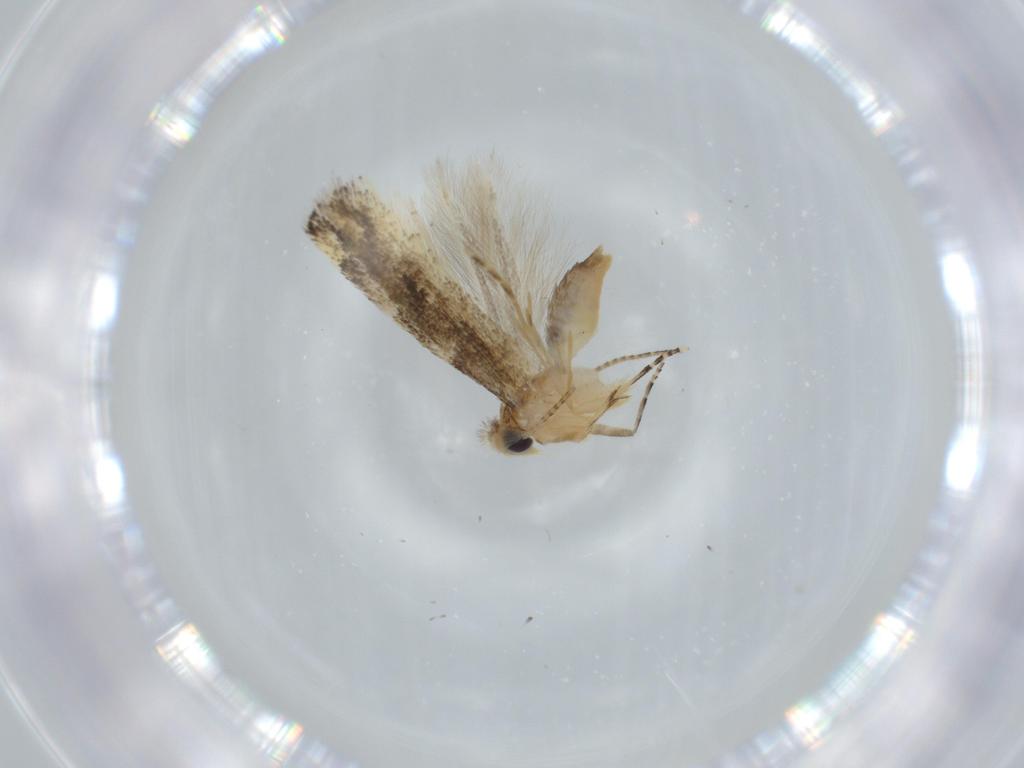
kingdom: Animalia
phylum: Arthropoda
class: Insecta
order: Lepidoptera
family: Bucculatricidae
